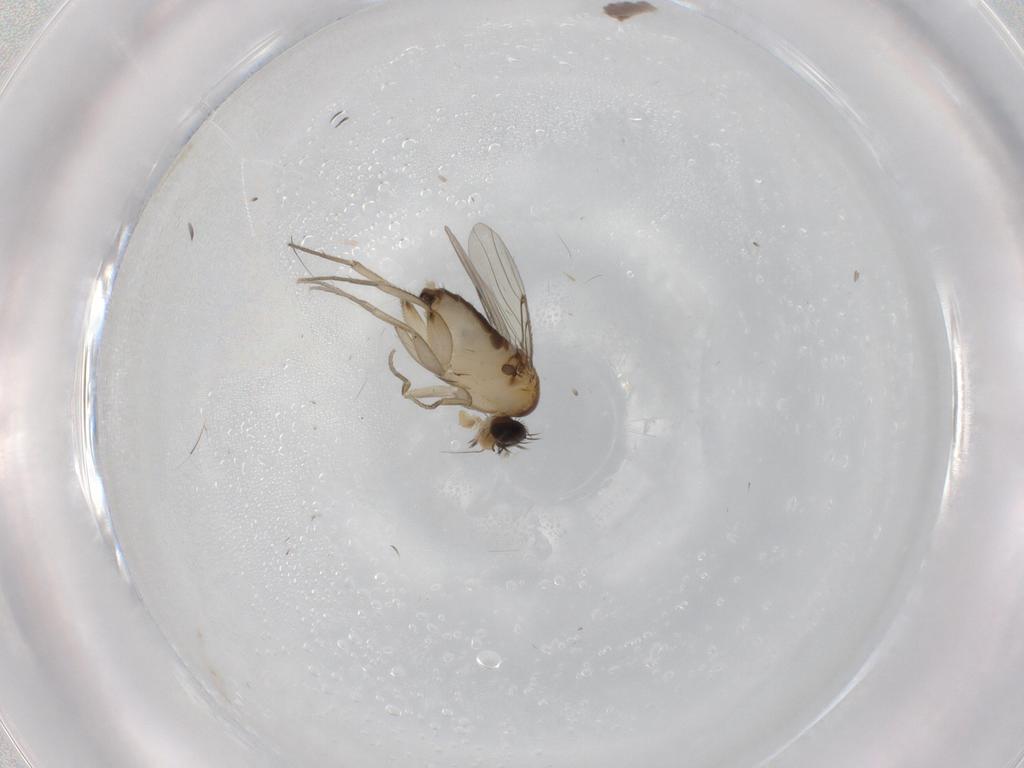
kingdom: Animalia
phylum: Arthropoda
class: Insecta
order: Diptera
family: Phoridae
